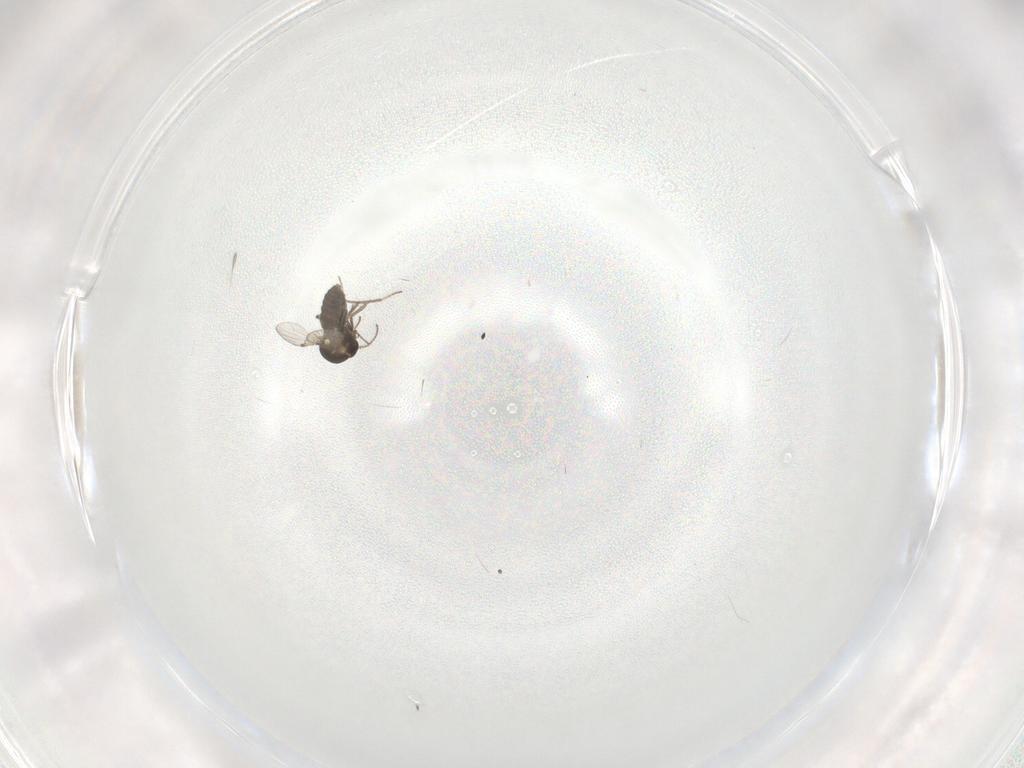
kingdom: Animalia
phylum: Arthropoda
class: Insecta
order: Diptera
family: Ceratopogonidae
